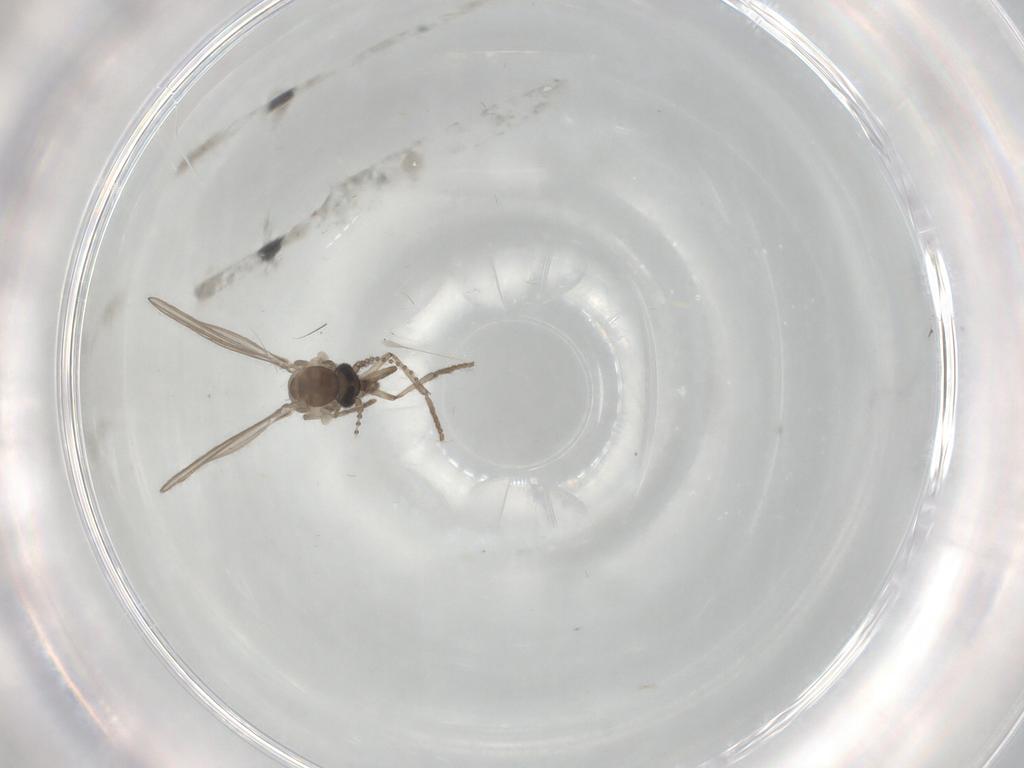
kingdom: Animalia
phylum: Arthropoda
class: Insecta
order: Diptera
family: Psychodidae
